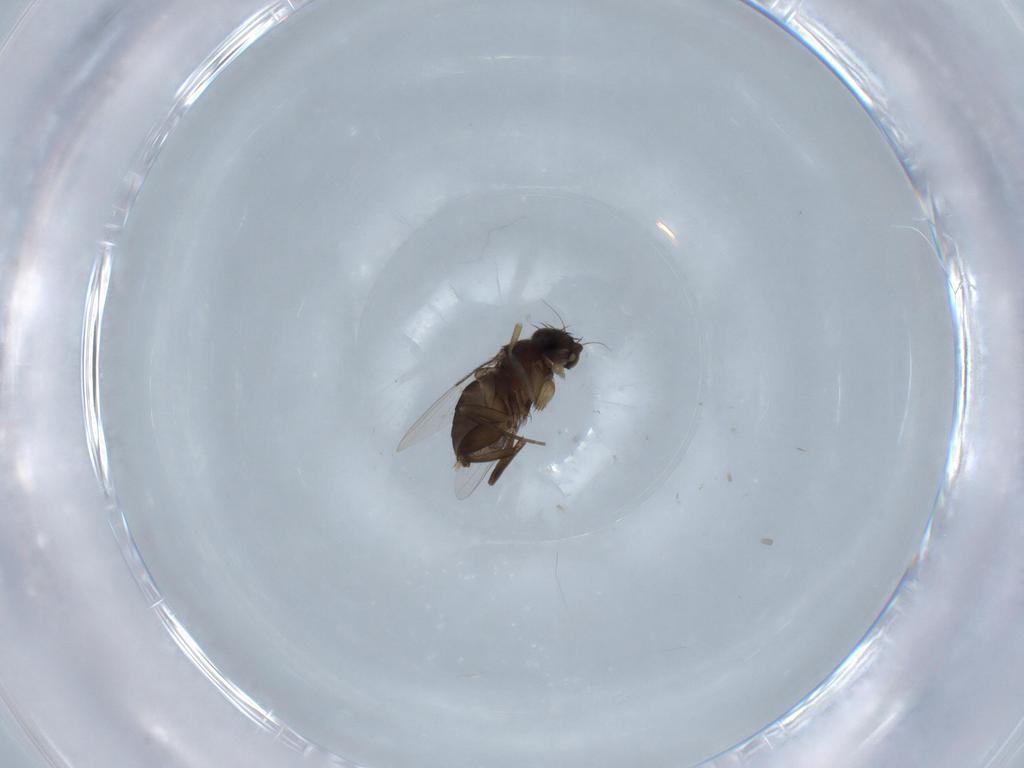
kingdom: Animalia
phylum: Arthropoda
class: Insecta
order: Diptera
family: Phoridae
